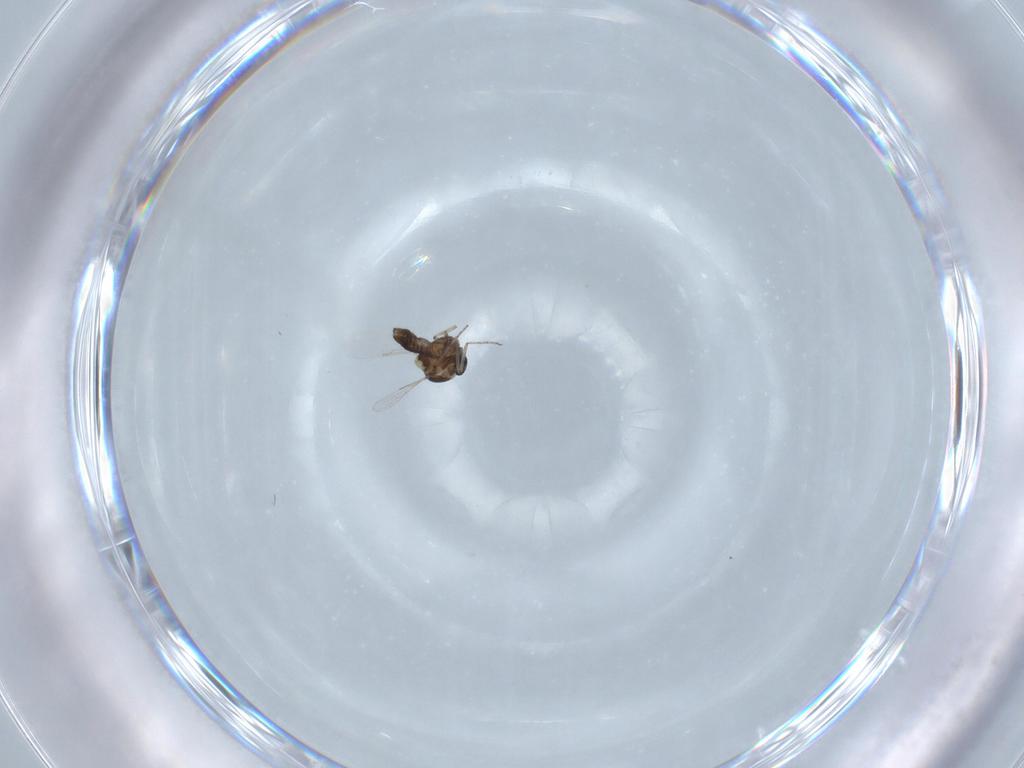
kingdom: Animalia
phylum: Arthropoda
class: Insecta
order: Diptera
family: Ceratopogonidae
